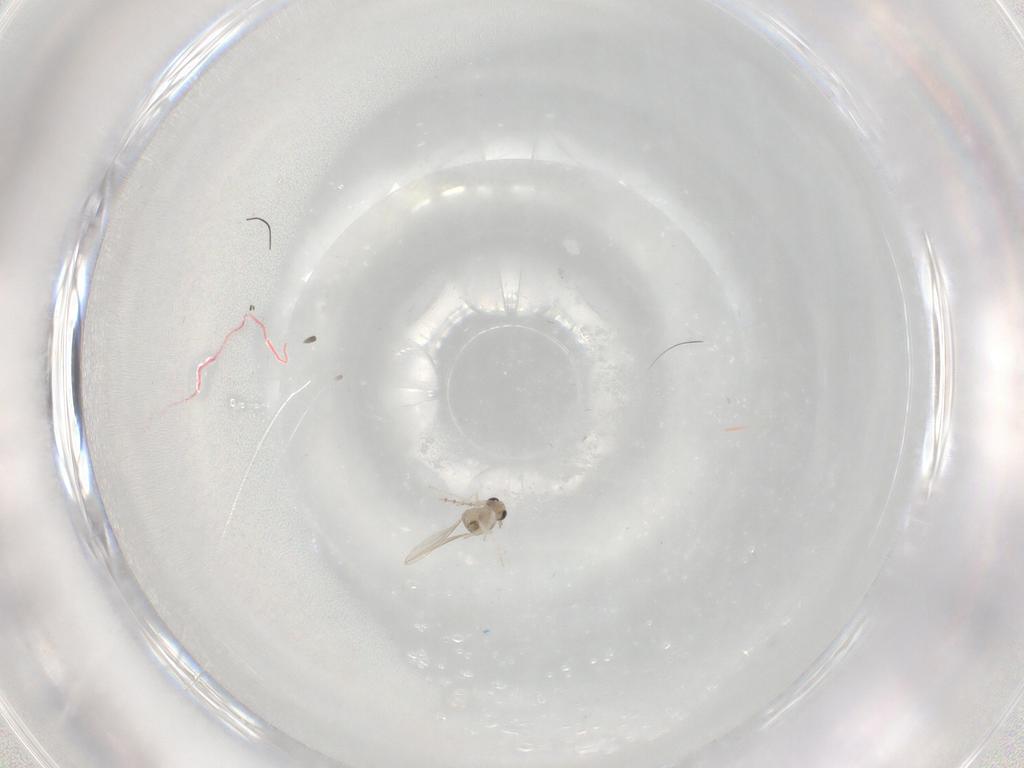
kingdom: Animalia
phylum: Arthropoda
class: Insecta
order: Diptera
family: Cecidomyiidae
